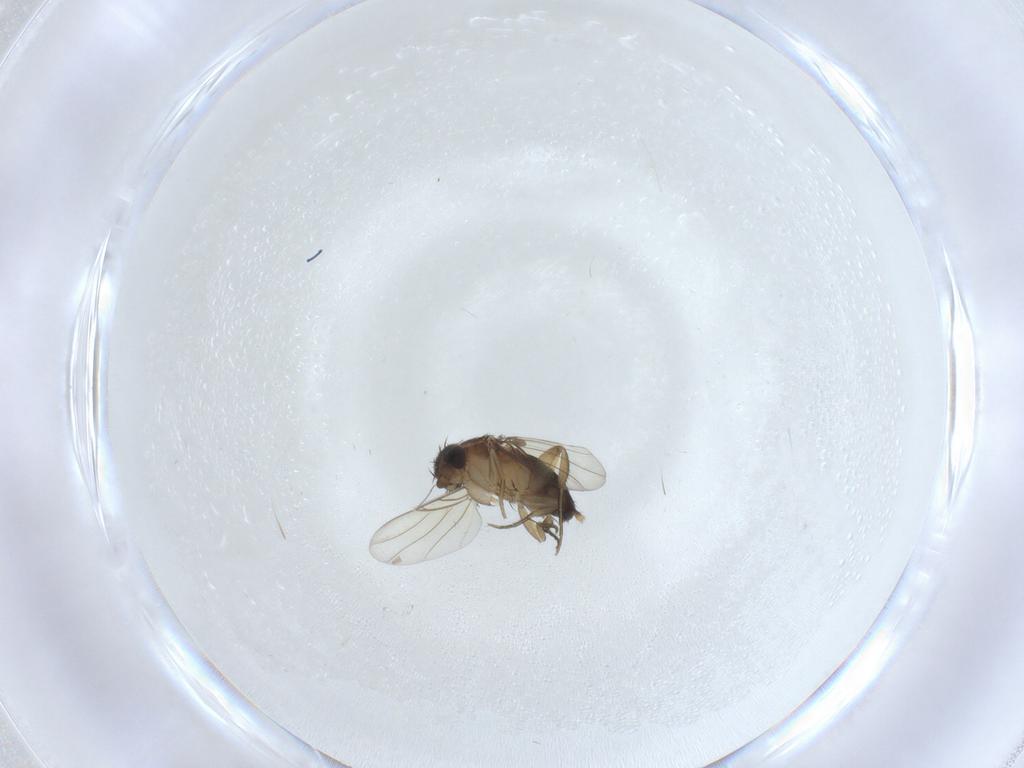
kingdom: Animalia
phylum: Arthropoda
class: Insecta
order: Diptera
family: Phoridae
